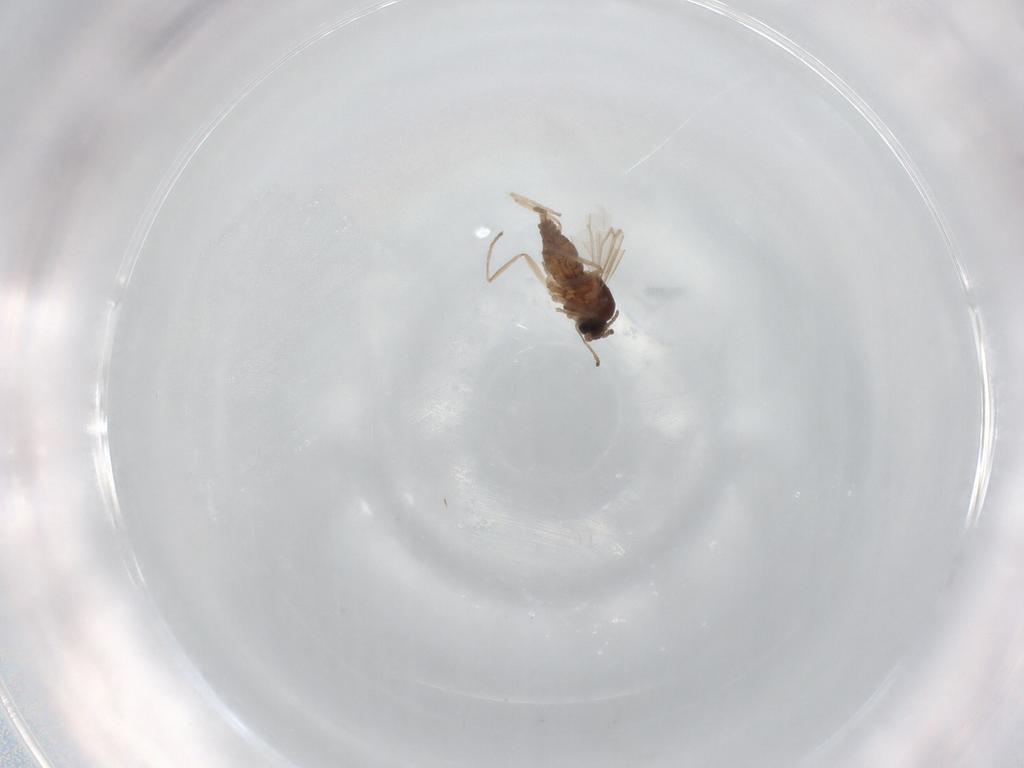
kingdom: Animalia
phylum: Arthropoda
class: Insecta
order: Diptera
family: Cecidomyiidae
